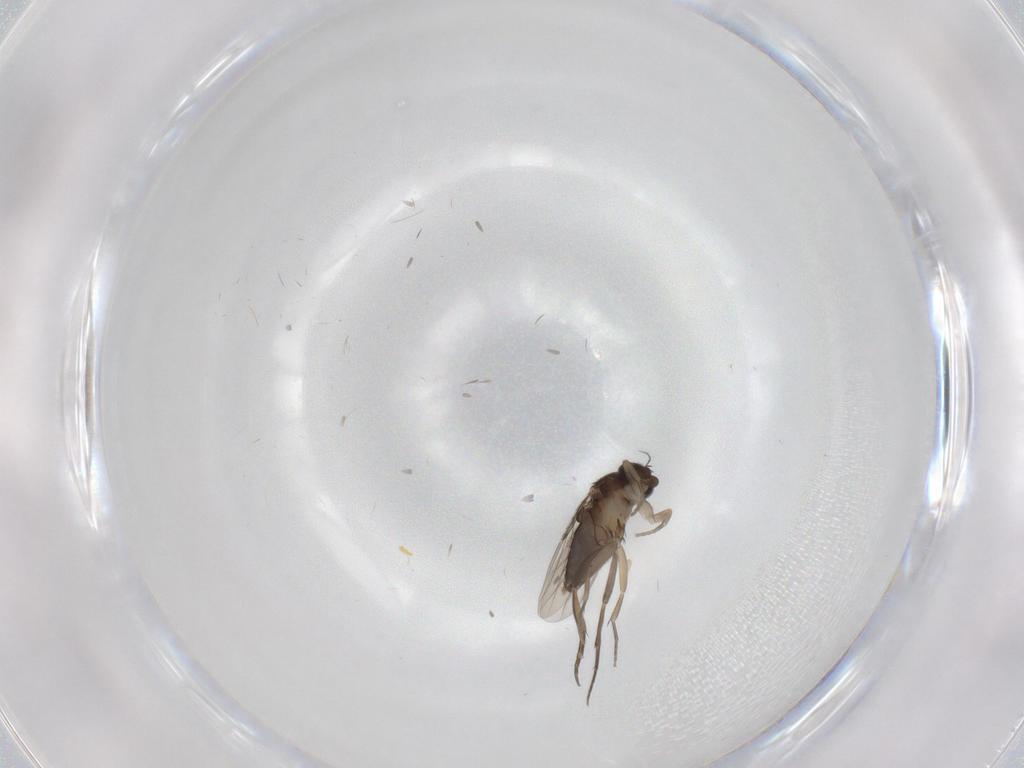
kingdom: Animalia
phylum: Arthropoda
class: Insecta
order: Diptera
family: Phoridae
